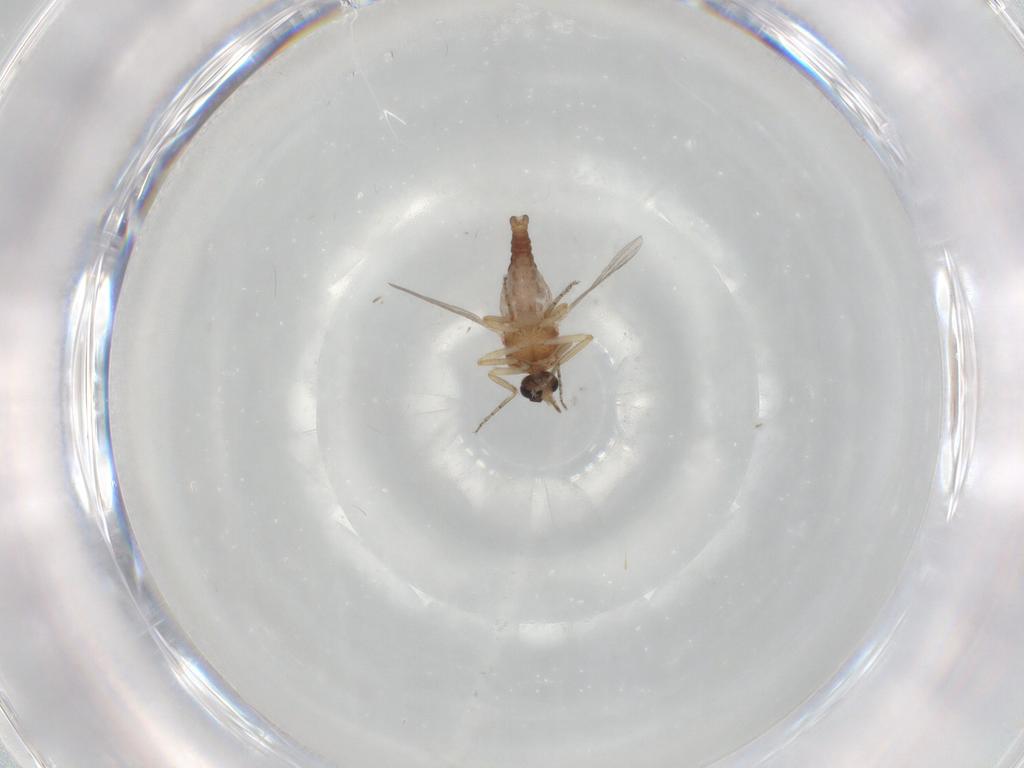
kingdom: Animalia
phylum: Arthropoda
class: Insecta
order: Diptera
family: Ceratopogonidae
